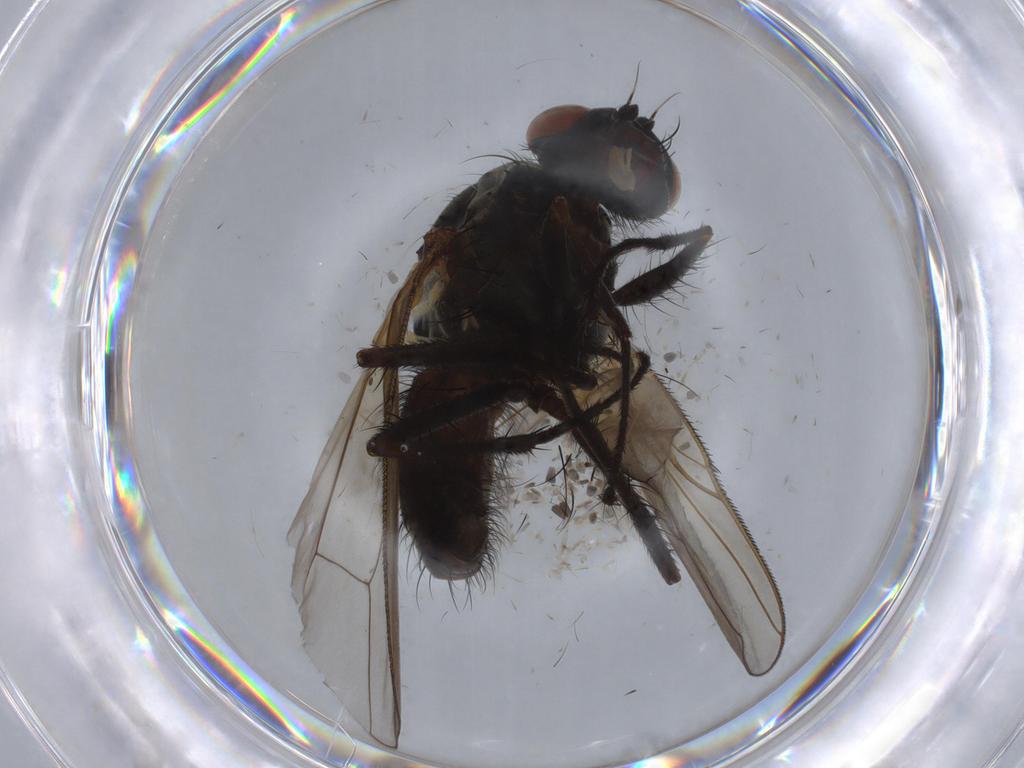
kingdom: Animalia
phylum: Arthropoda
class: Insecta
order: Diptera
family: Anthomyiidae
